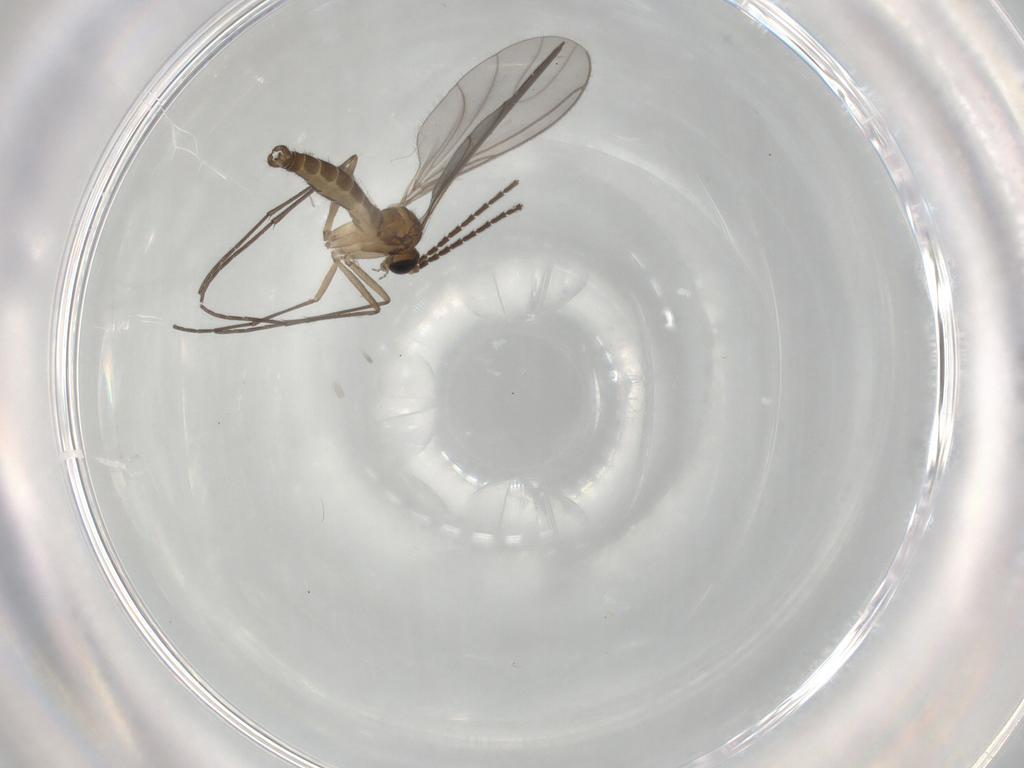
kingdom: Animalia
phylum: Arthropoda
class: Insecta
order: Diptera
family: Sciaridae
